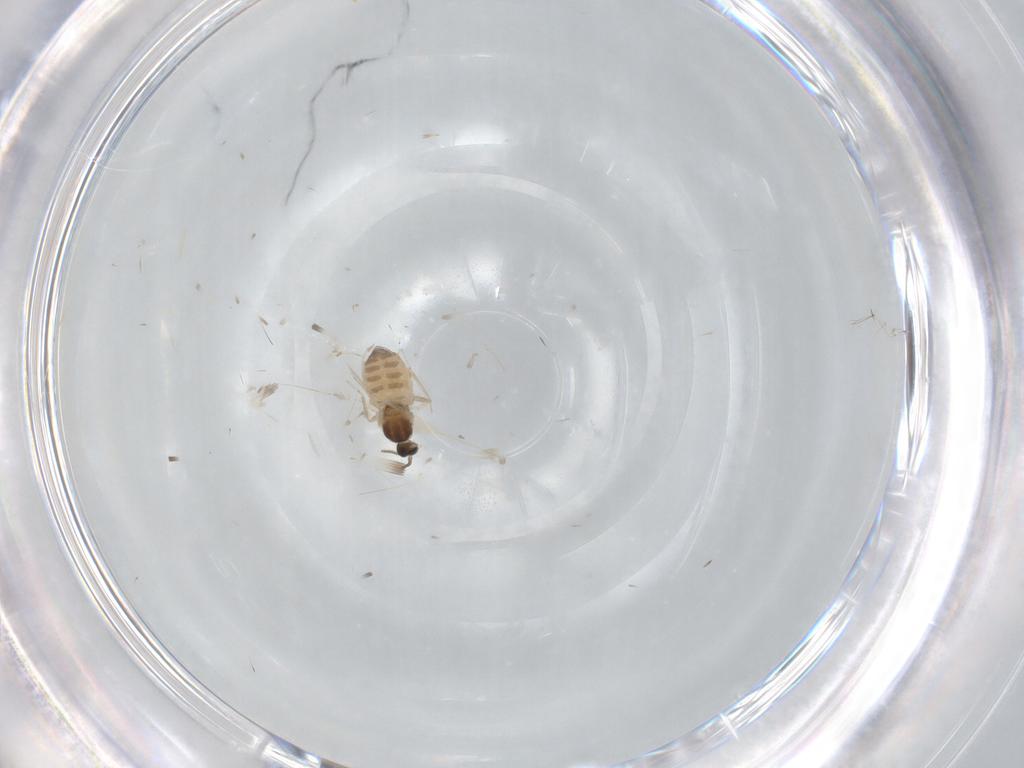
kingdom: Animalia
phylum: Arthropoda
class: Insecta
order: Diptera
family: Cecidomyiidae
